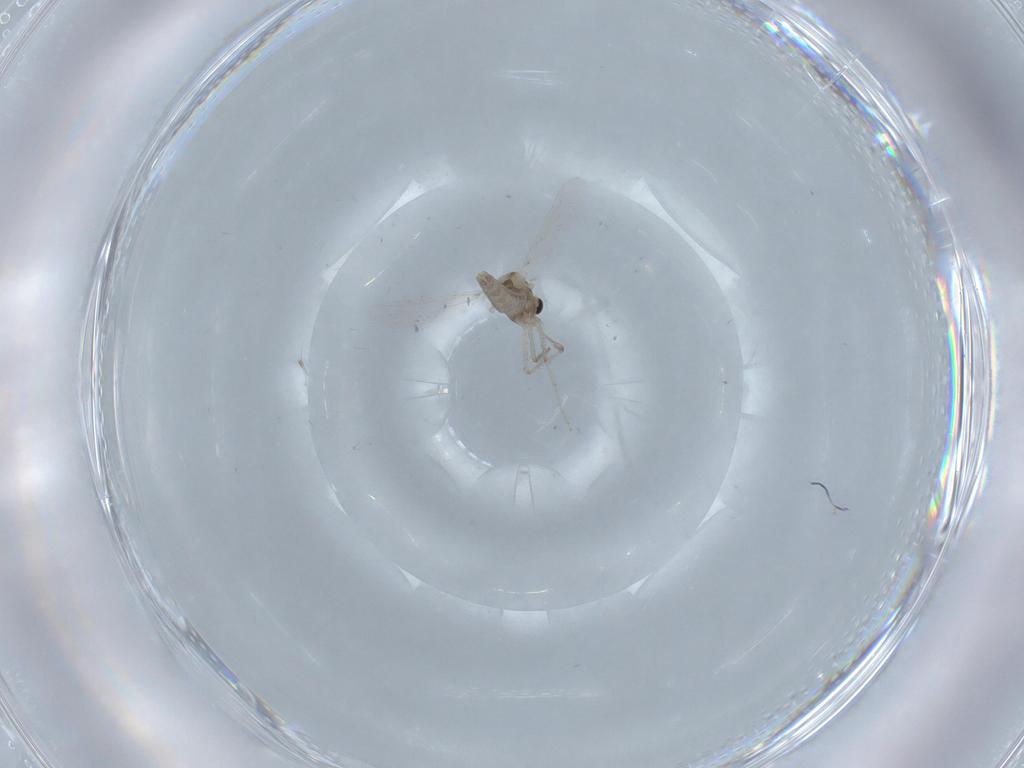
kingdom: Animalia
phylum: Arthropoda
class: Insecta
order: Diptera
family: Chironomidae
